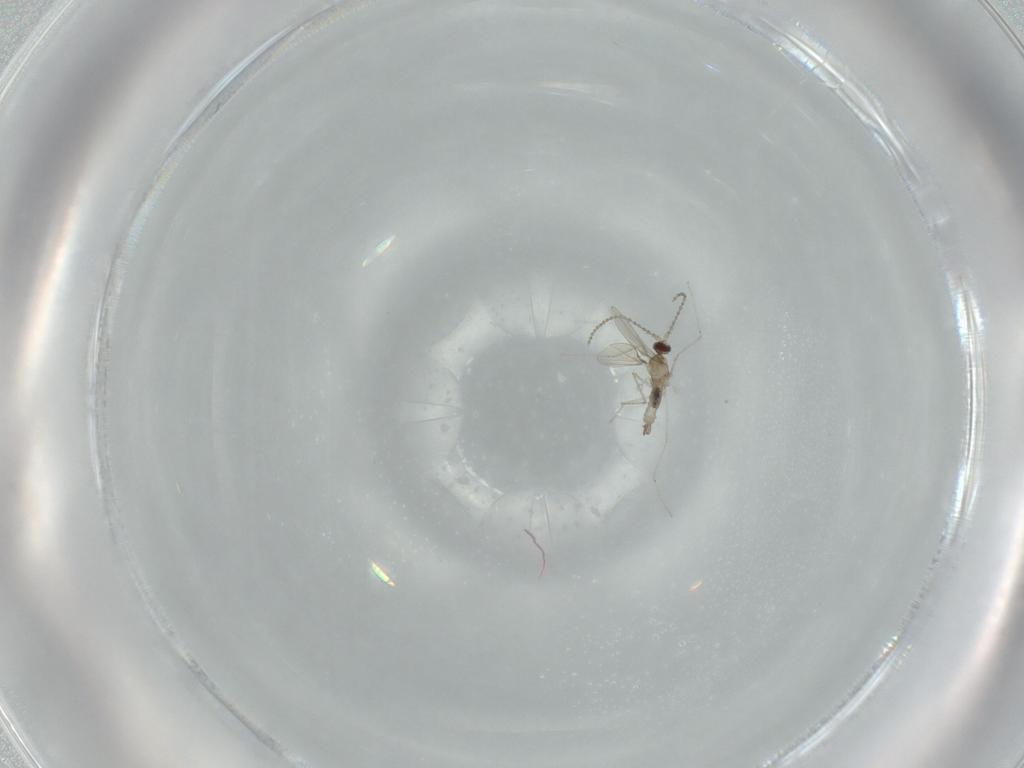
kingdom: Animalia
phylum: Arthropoda
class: Insecta
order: Diptera
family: Cecidomyiidae
